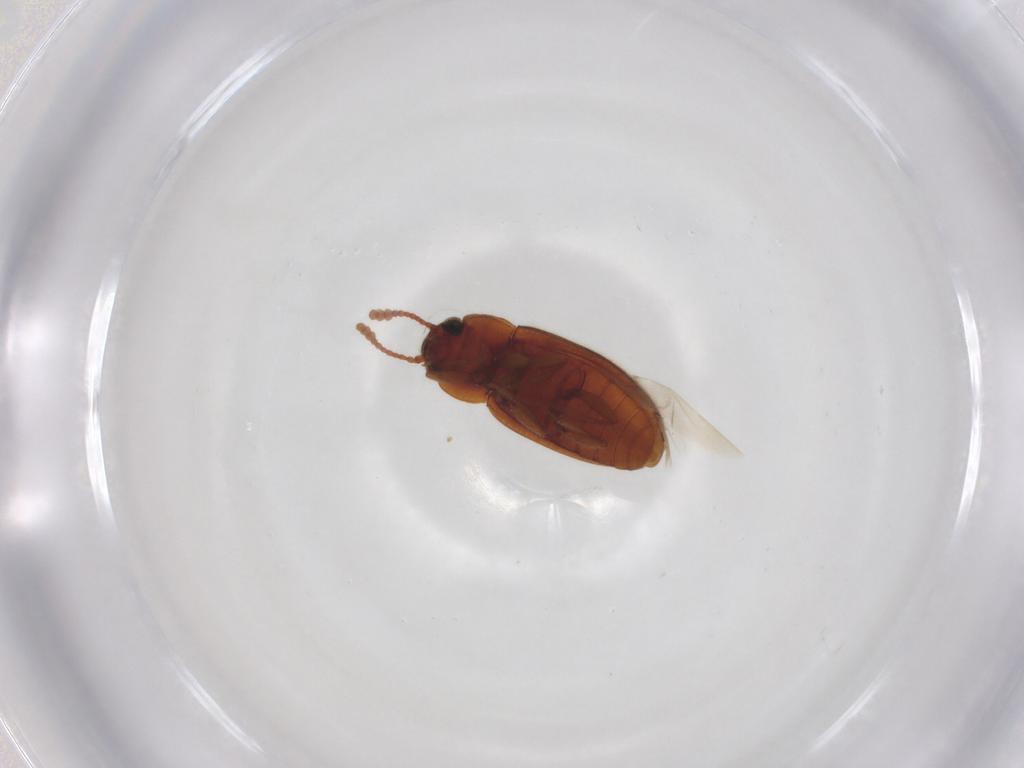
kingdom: Animalia
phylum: Arthropoda
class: Insecta
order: Coleoptera
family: Erotylidae
